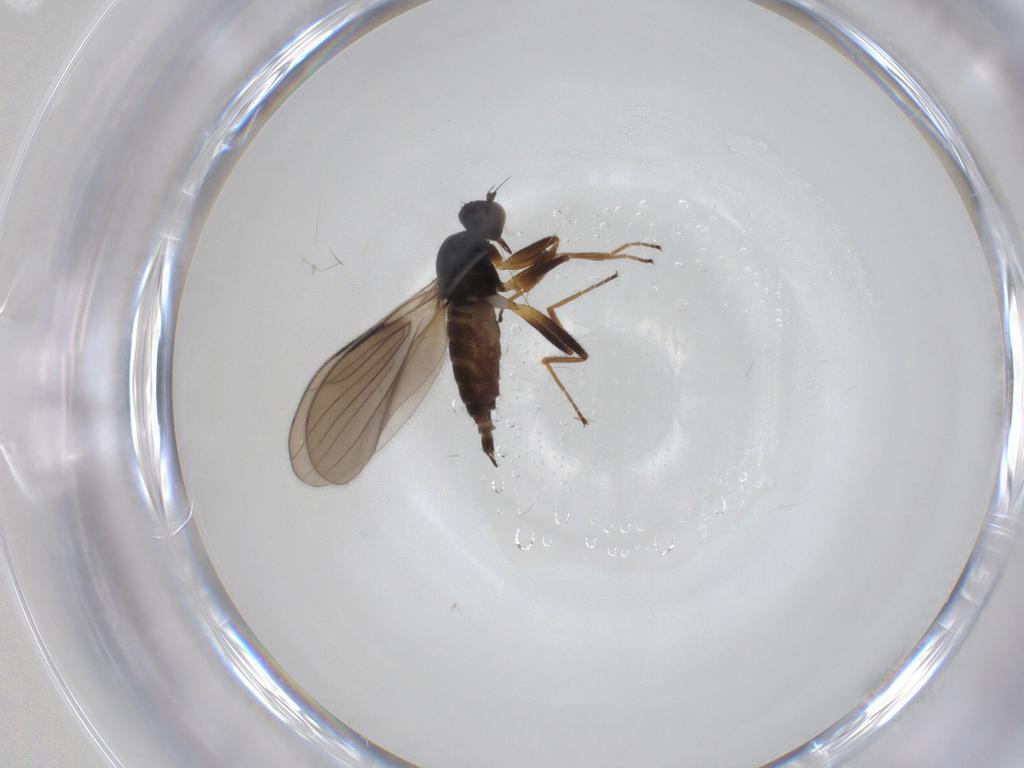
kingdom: Animalia
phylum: Arthropoda
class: Insecta
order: Diptera
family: Hybotidae
